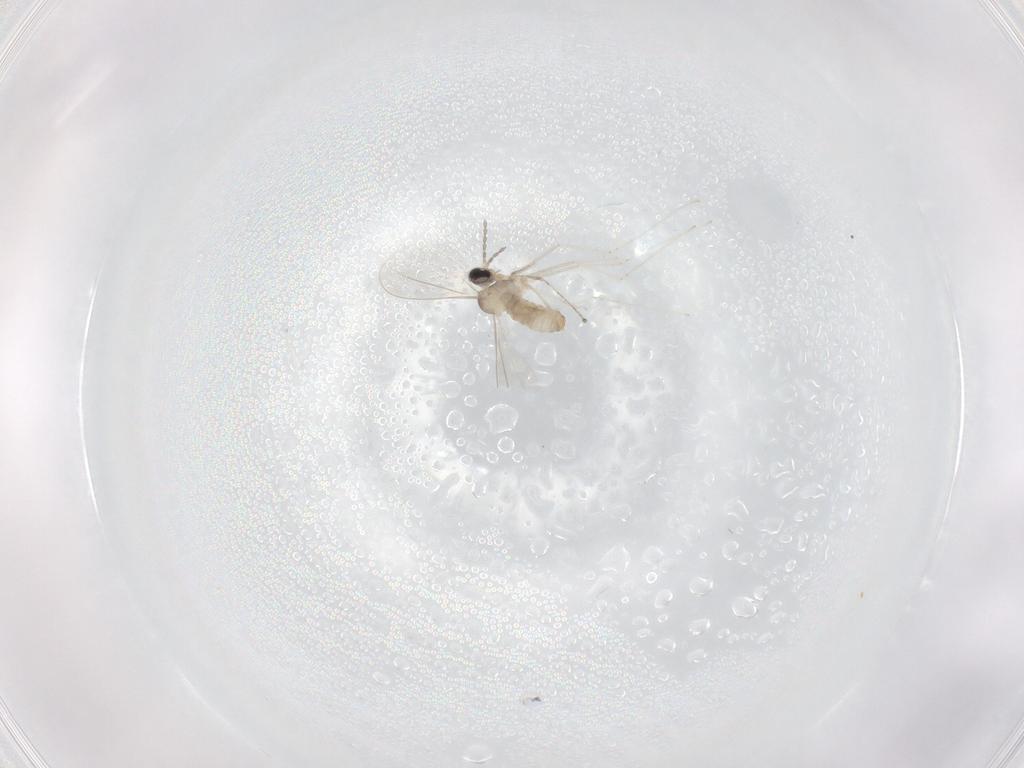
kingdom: Animalia
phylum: Arthropoda
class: Insecta
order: Diptera
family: Cecidomyiidae
